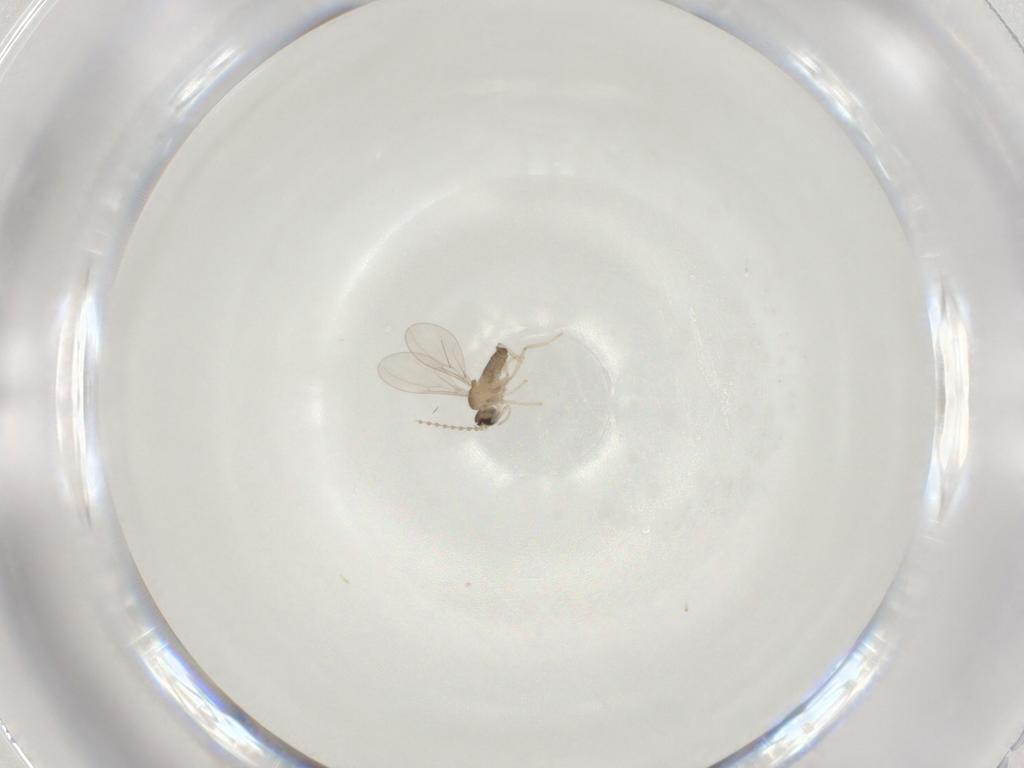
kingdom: Animalia
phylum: Arthropoda
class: Insecta
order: Diptera
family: Cecidomyiidae
